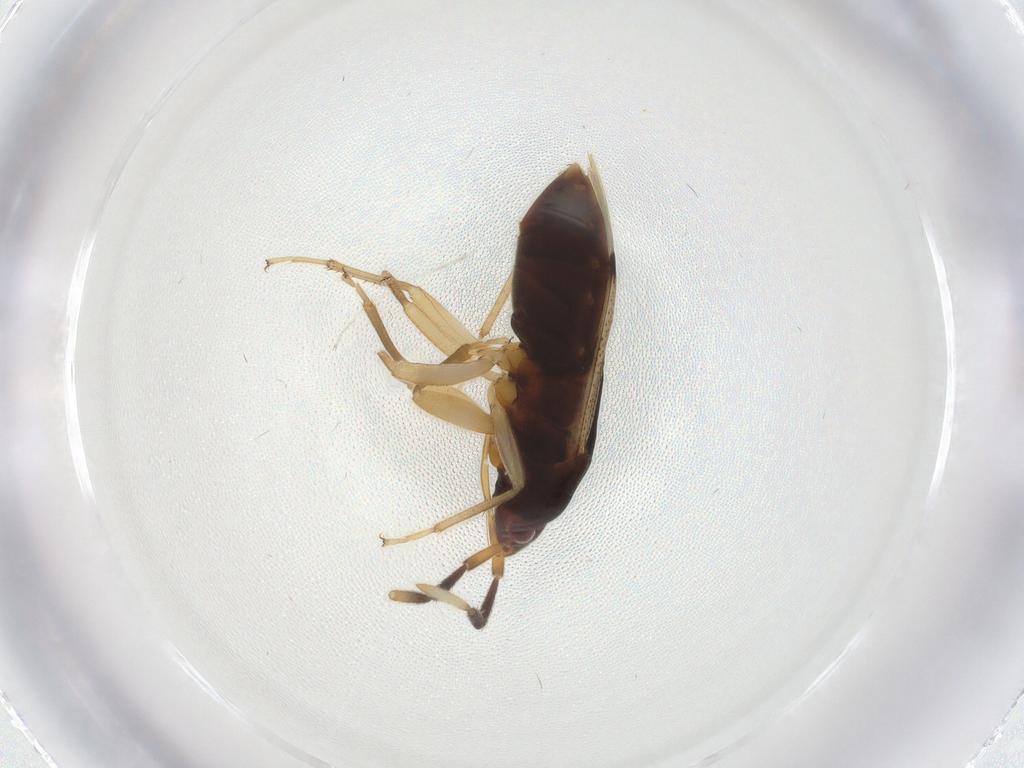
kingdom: Animalia
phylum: Arthropoda
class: Insecta
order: Hemiptera
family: Rhyparochromidae
